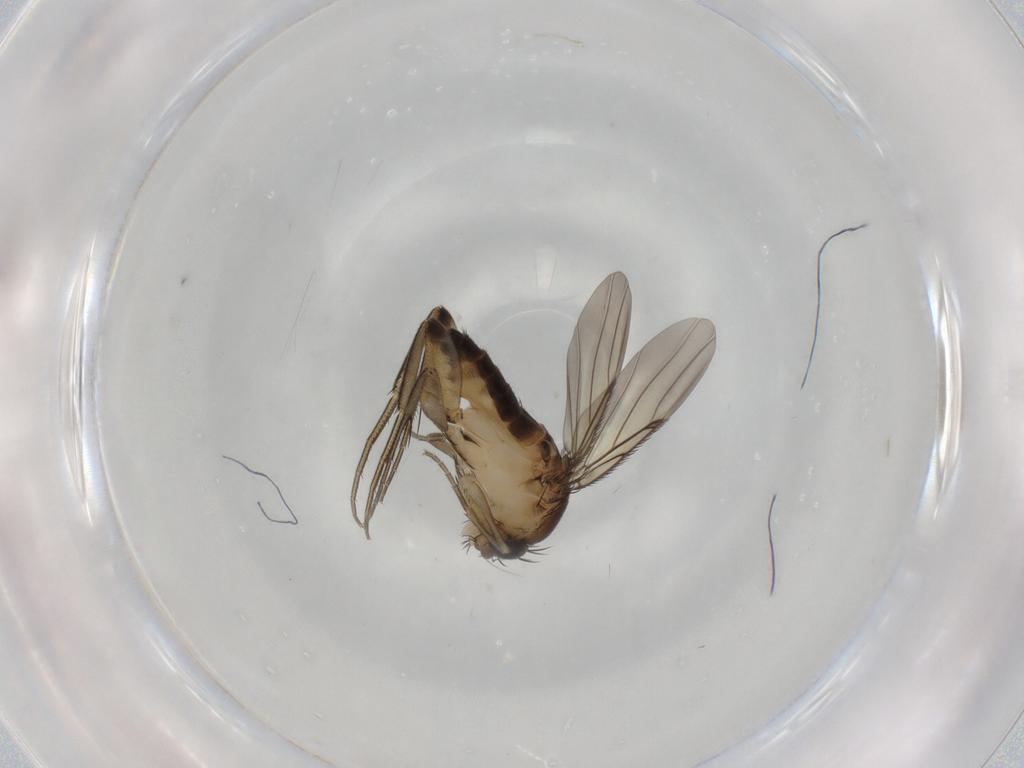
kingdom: Animalia
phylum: Arthropoda
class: Insecta
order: Diptera
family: Cecidomyiidae
